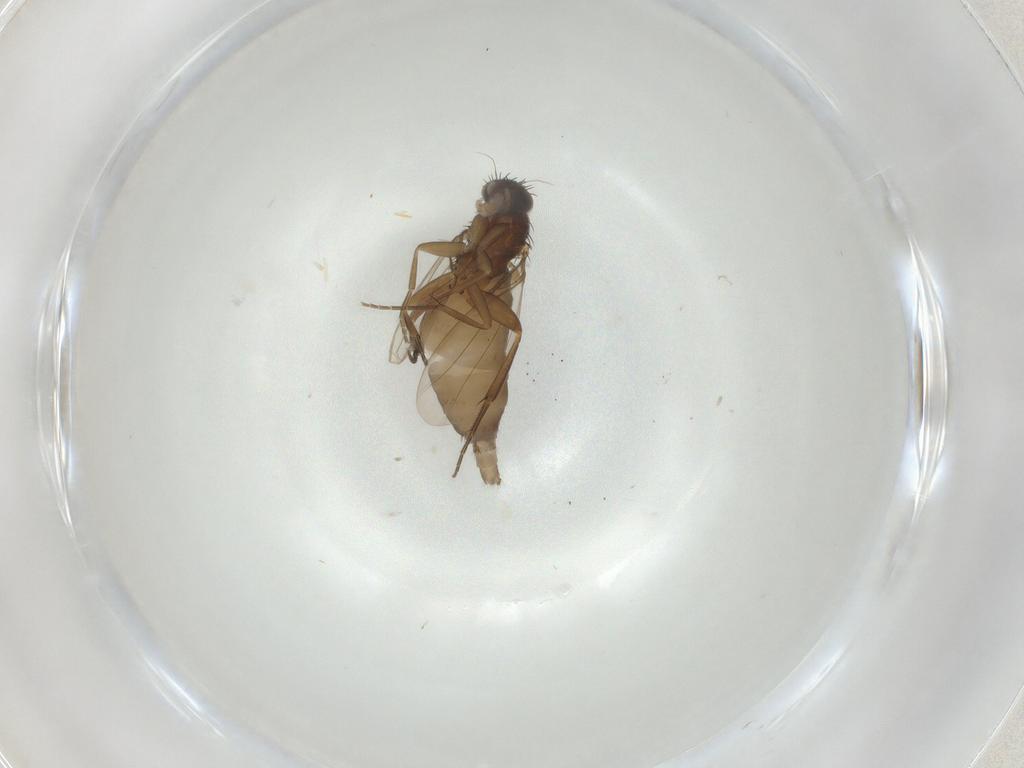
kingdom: Animalia
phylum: Arthropoda
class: Insecta
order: Diptera
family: Phoridae
